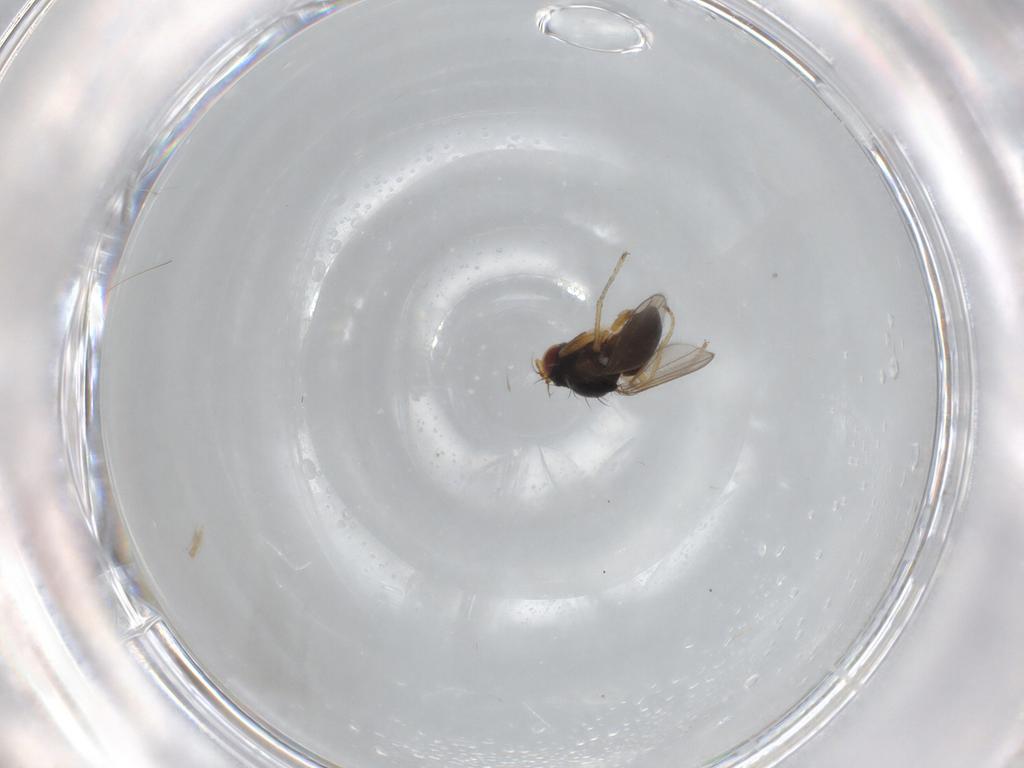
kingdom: Animalia
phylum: Arthropoda
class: Insecta
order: Diptera
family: Ephydridae
